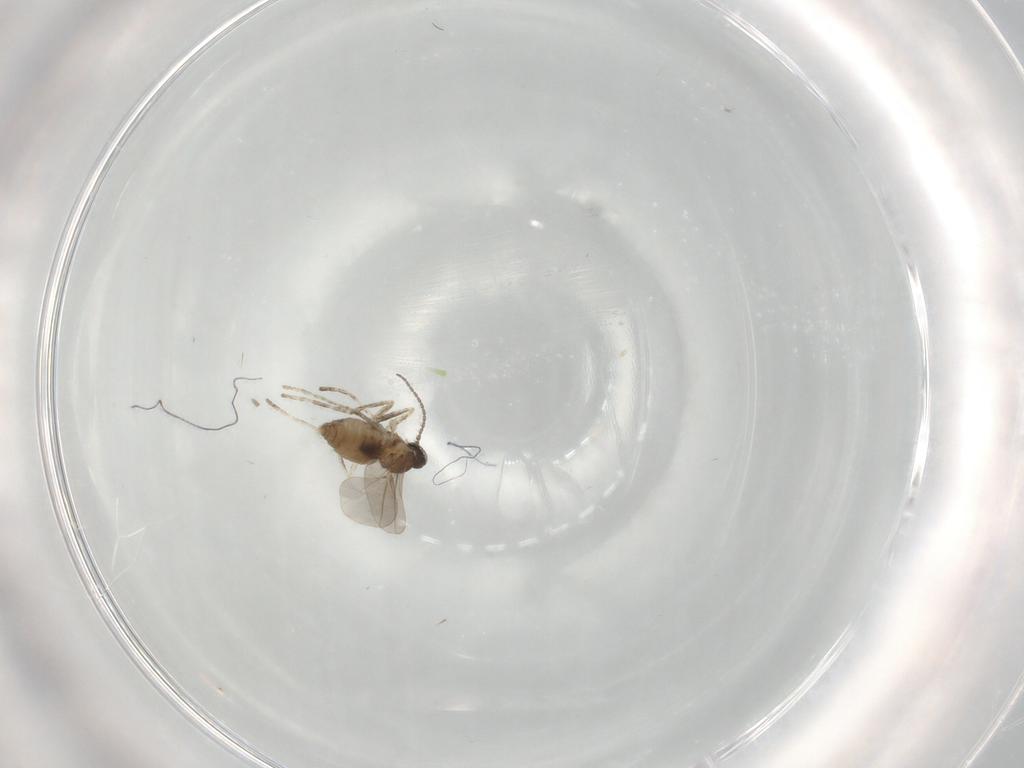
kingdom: Animalia
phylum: Arthropoda
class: Insecta
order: Diptera
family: Cecidomyiidae
